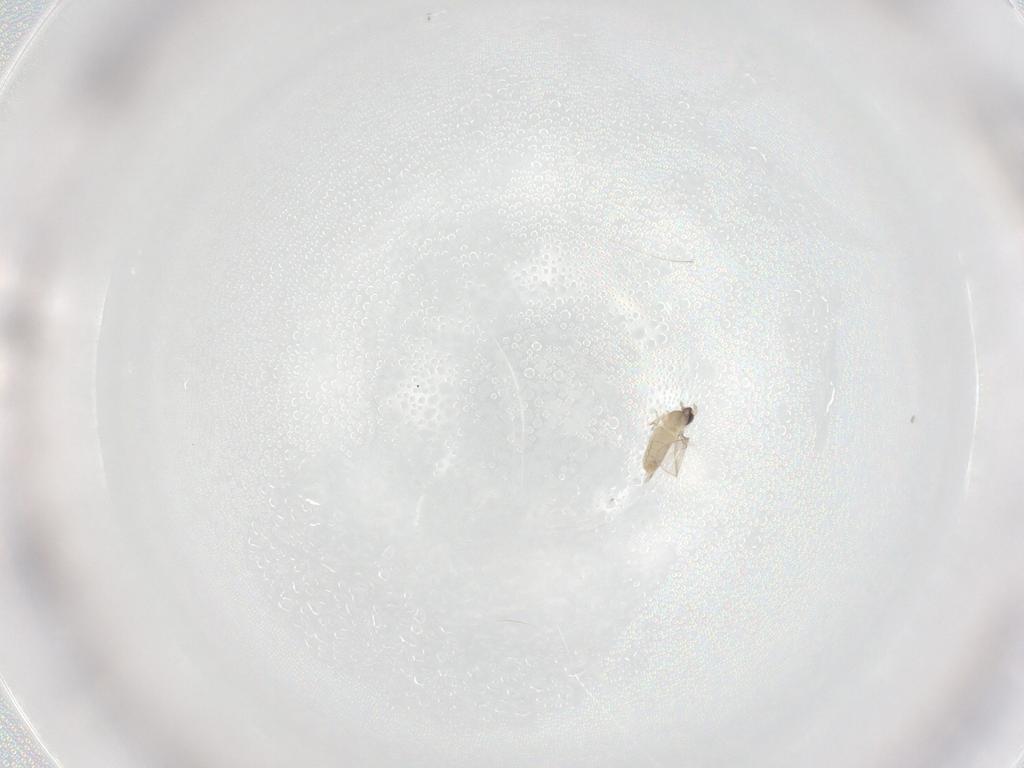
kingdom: Animalia
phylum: Arthropoda
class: Insecta
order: Diptera
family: Cecidomyiidae
